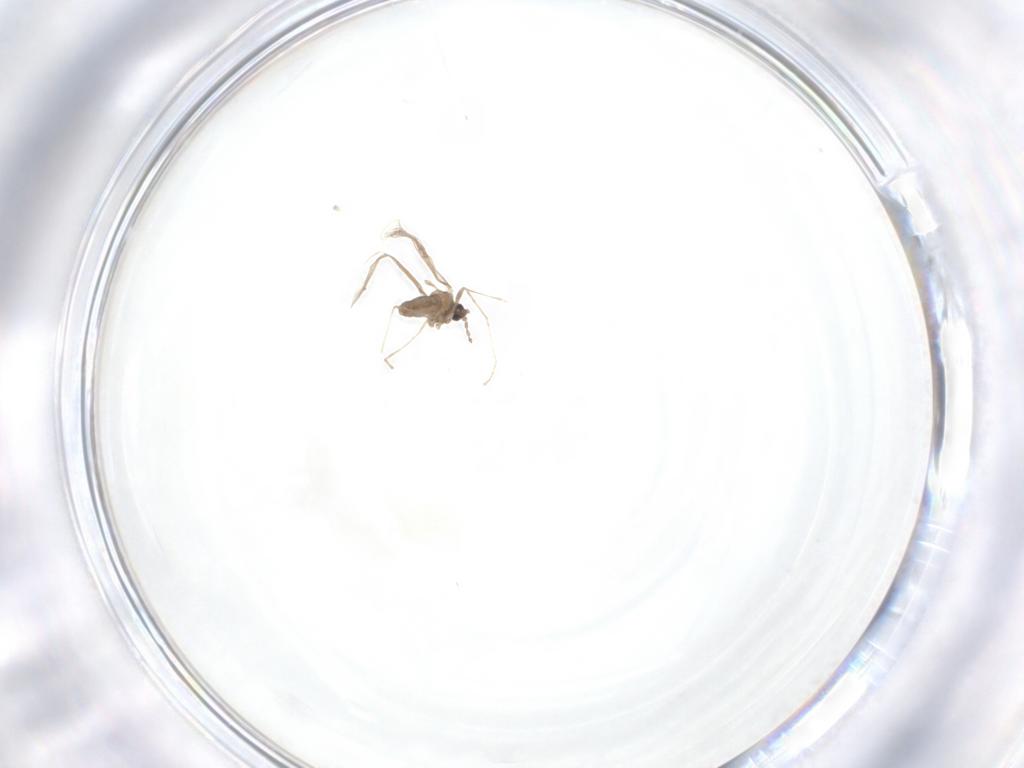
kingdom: Animalia
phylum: Arthropoda
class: Insecta
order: Diptera
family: Cecidomyiidae
